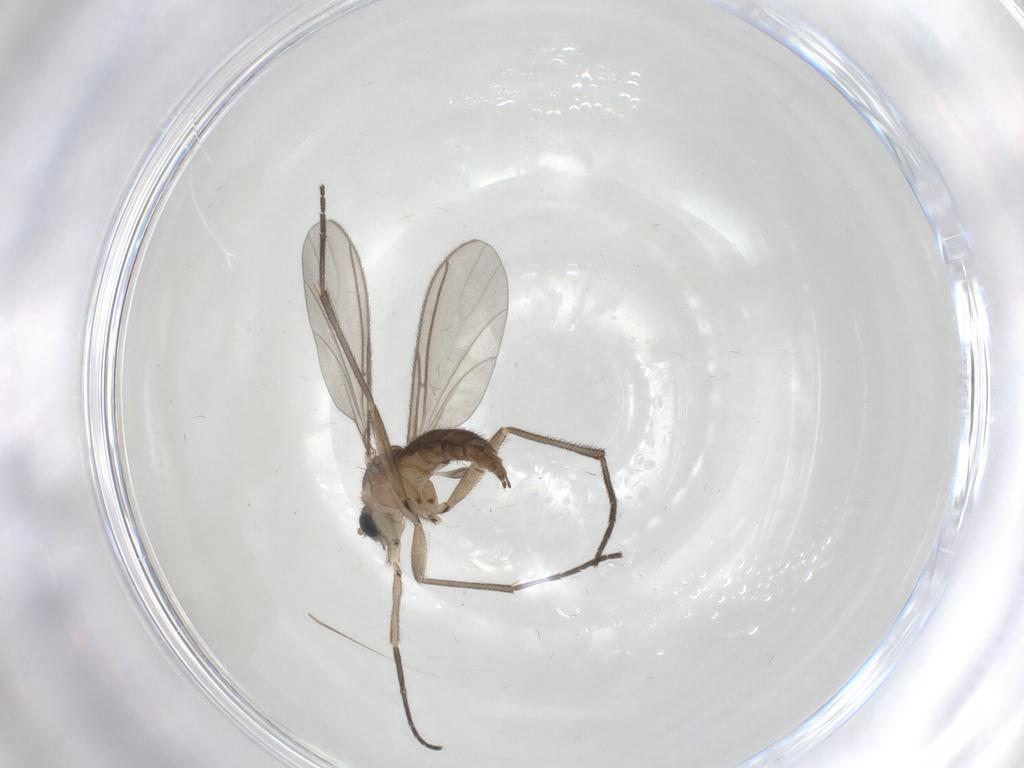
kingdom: Animalia
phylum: Arthropoda
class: Insecta
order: Diptera
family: Sciaridae
